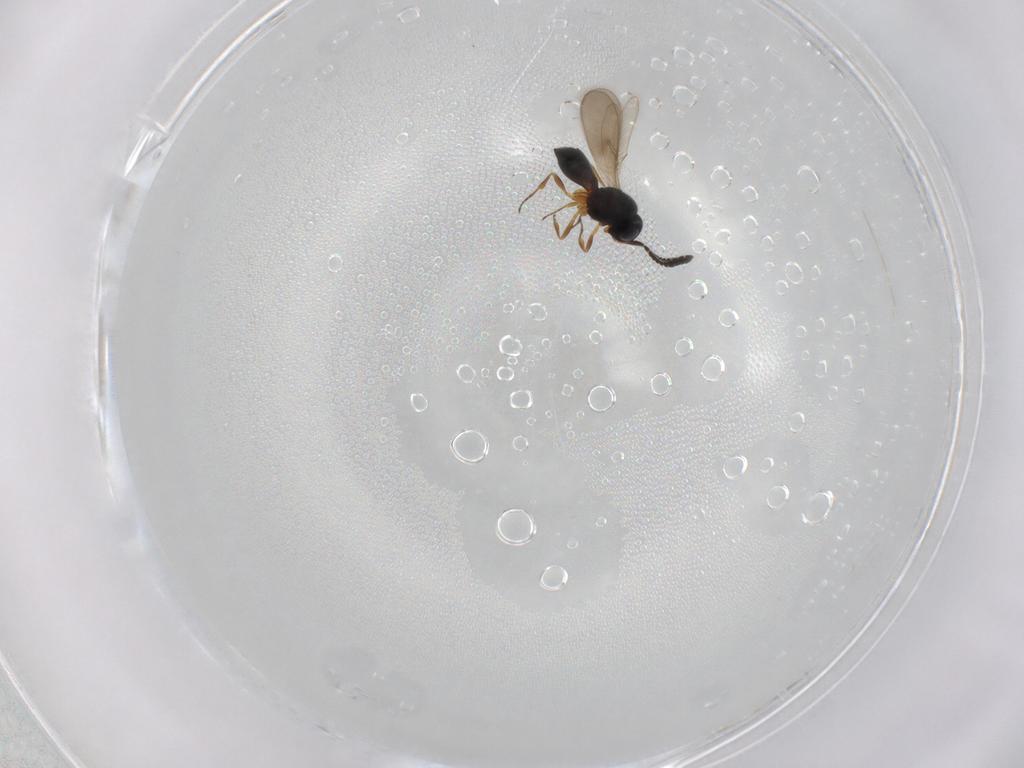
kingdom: Animalia
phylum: Arthropoda
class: Insecta
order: Hymenoptera
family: Scelionidae
